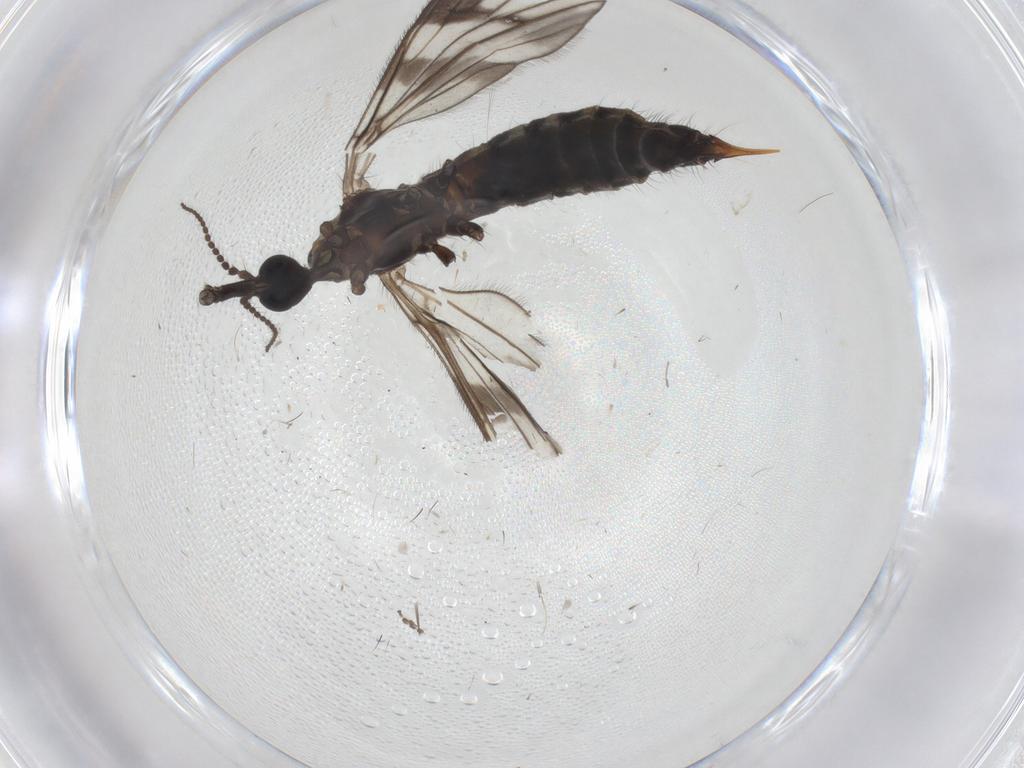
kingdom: Animalia
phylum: Arthropoda
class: Insecta
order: Diptera
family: Limoniidae
